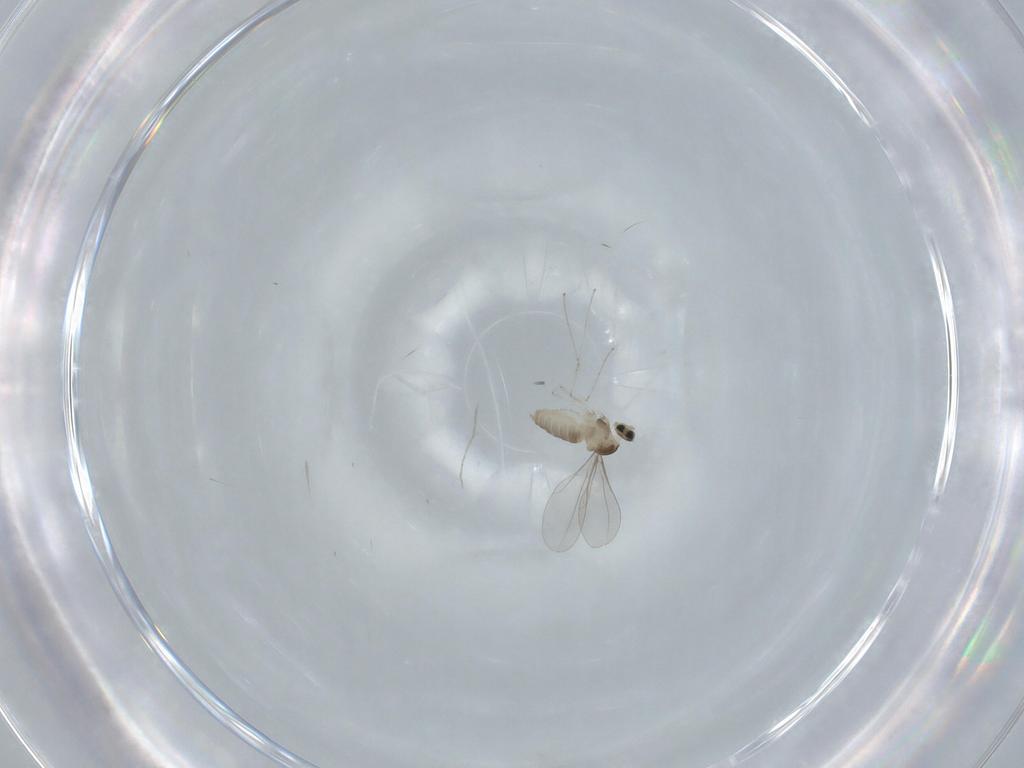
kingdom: Animalia
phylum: Arthropoda
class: Insecta
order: Diptera
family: Cecidomyiidae
